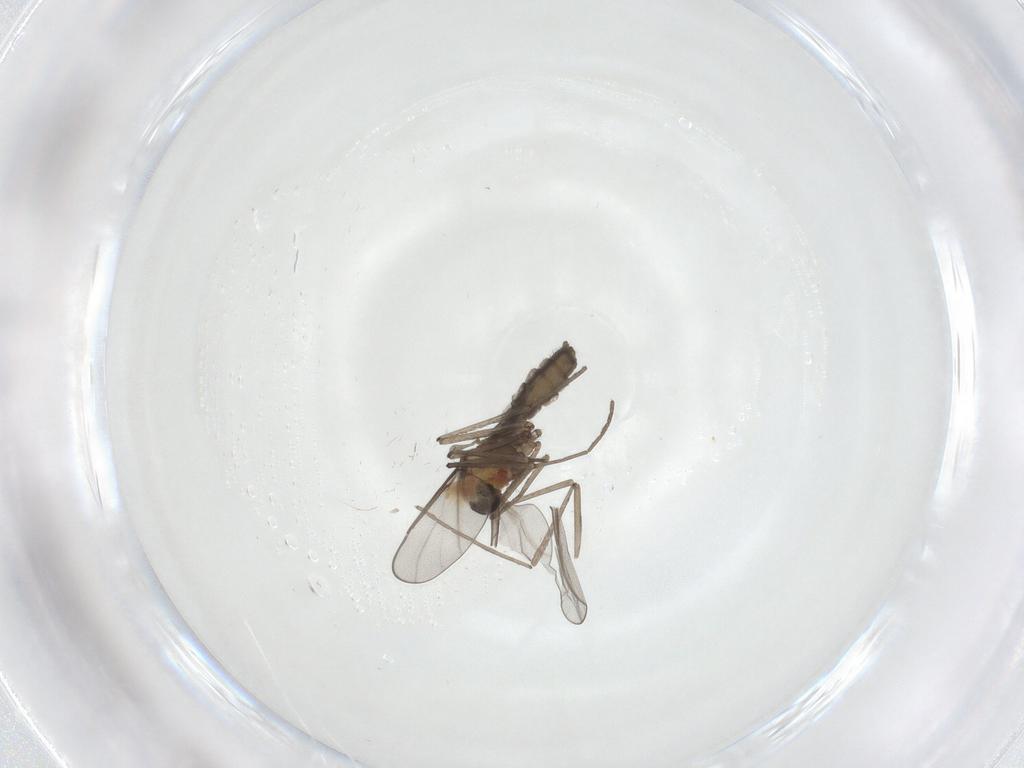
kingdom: Animalia
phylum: Arthropoda
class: Insecta
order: Diptera
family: Cecidomyiidae
